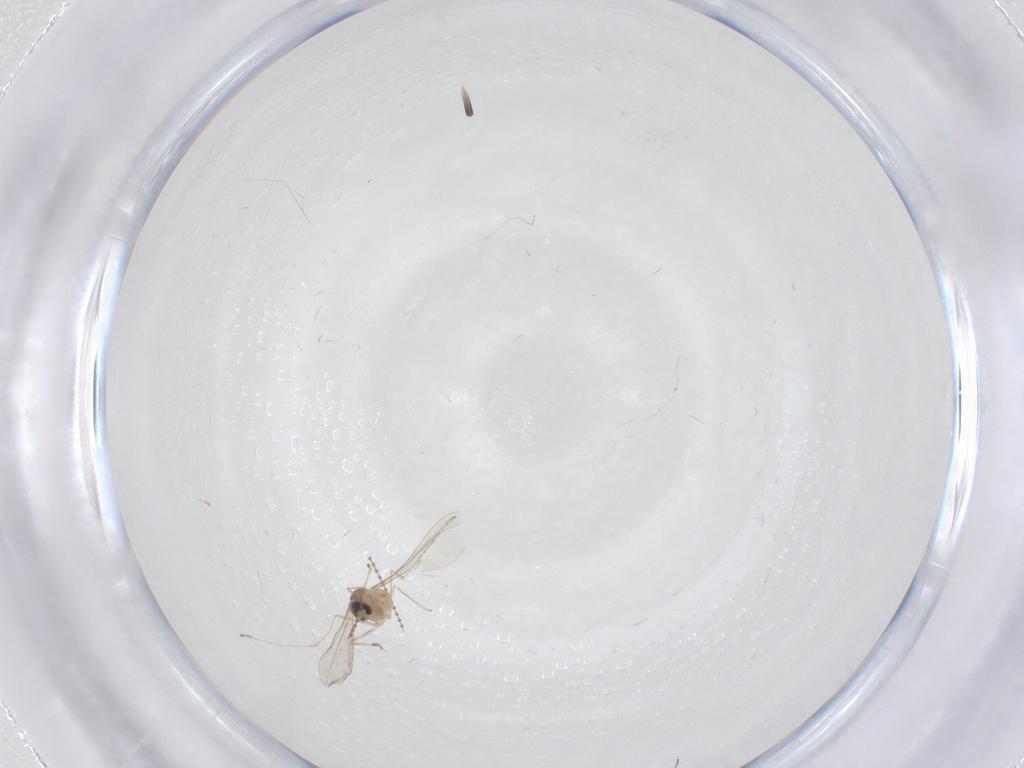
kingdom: Animalia
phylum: Arthropoda
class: Insecta
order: Diptera
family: Cecidomyiidae
